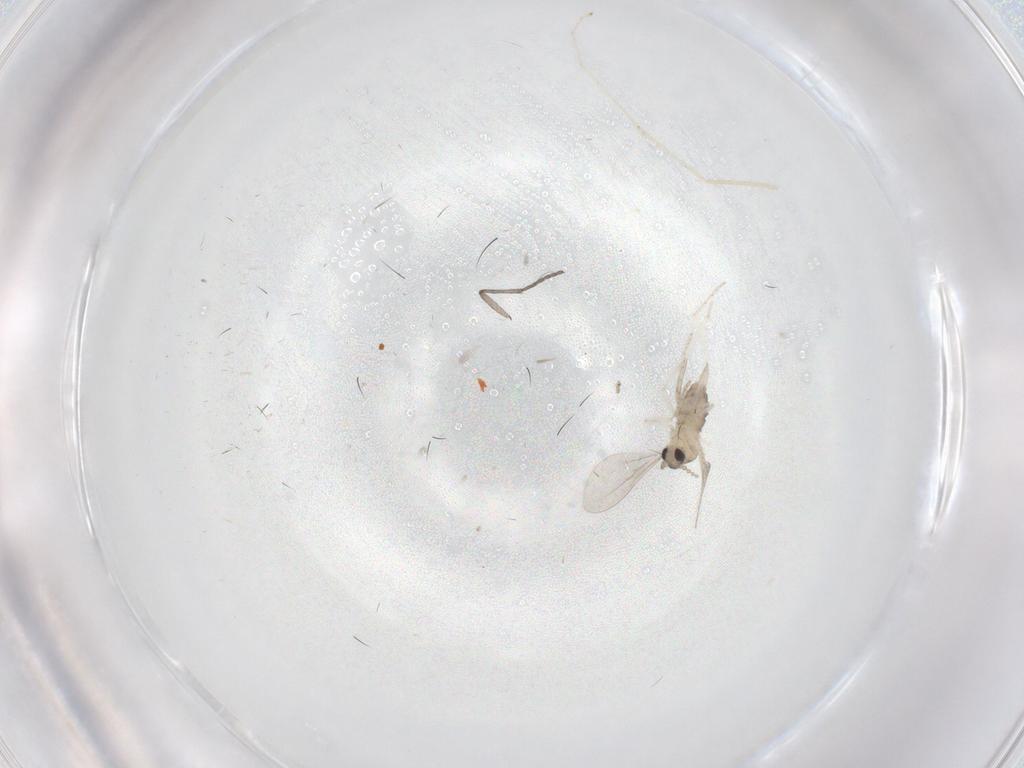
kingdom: Animalia
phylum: Arthropoda
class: Insecta
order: Diptera
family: Cecidomyiidae
